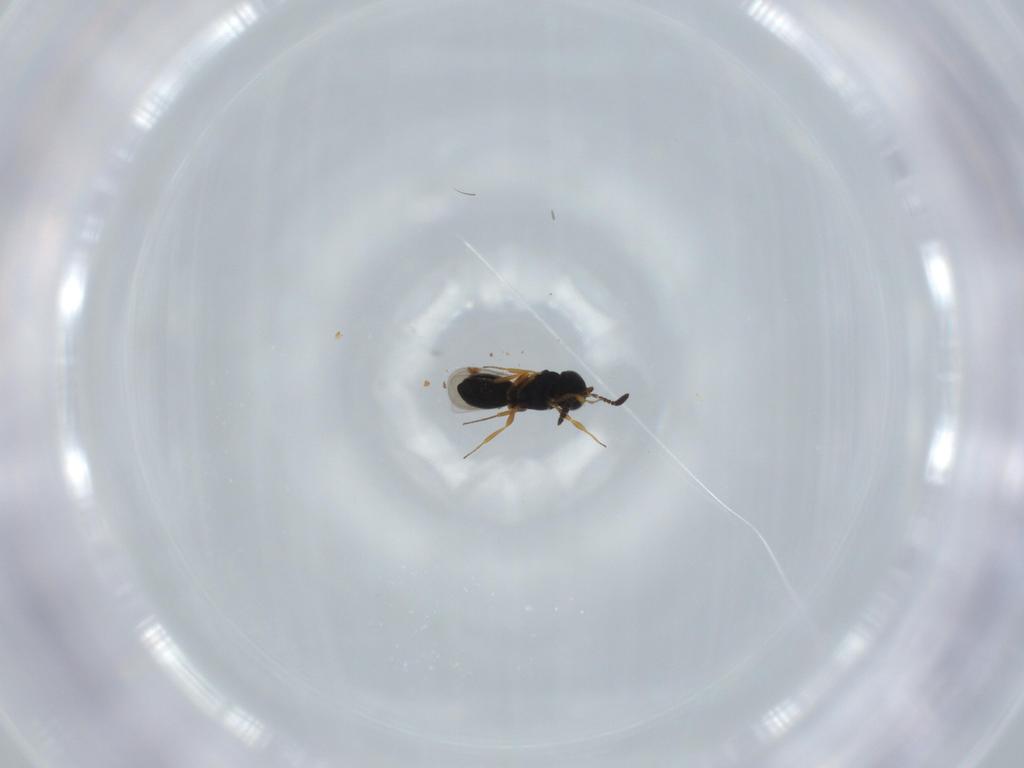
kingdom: Animalia
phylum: Arthropoda
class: Insecta
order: Hymenoptera
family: Scelionidae
